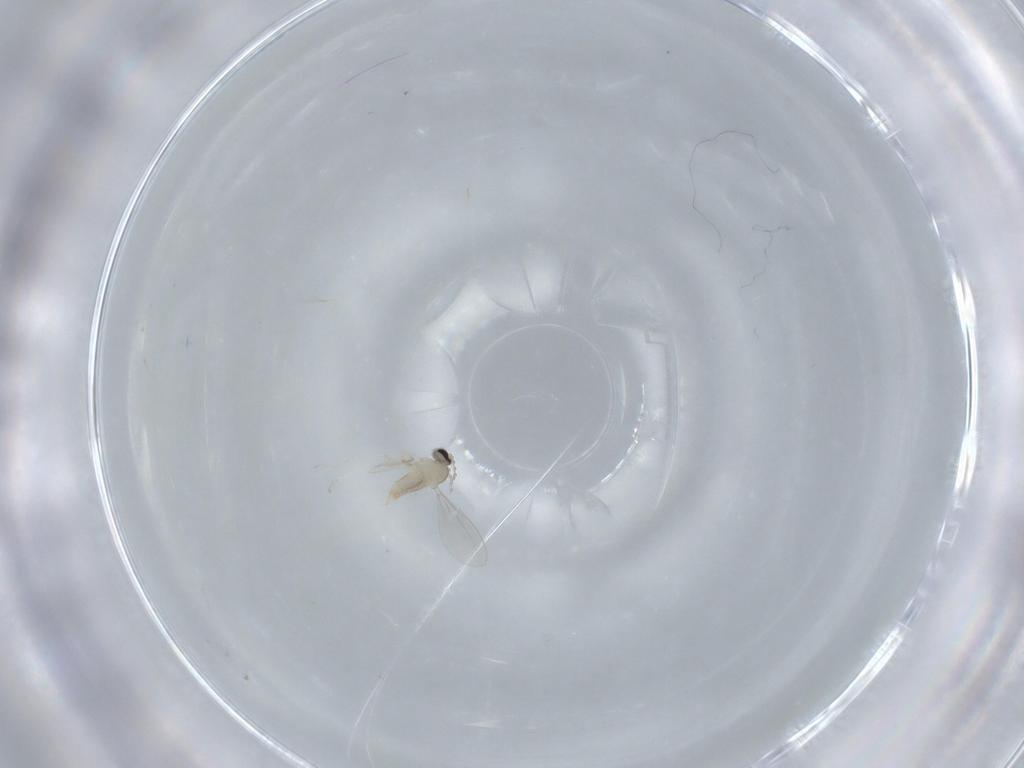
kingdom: Animalia
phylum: Arthropoda
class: Insecta
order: Diptera
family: Cecidomyiidae
